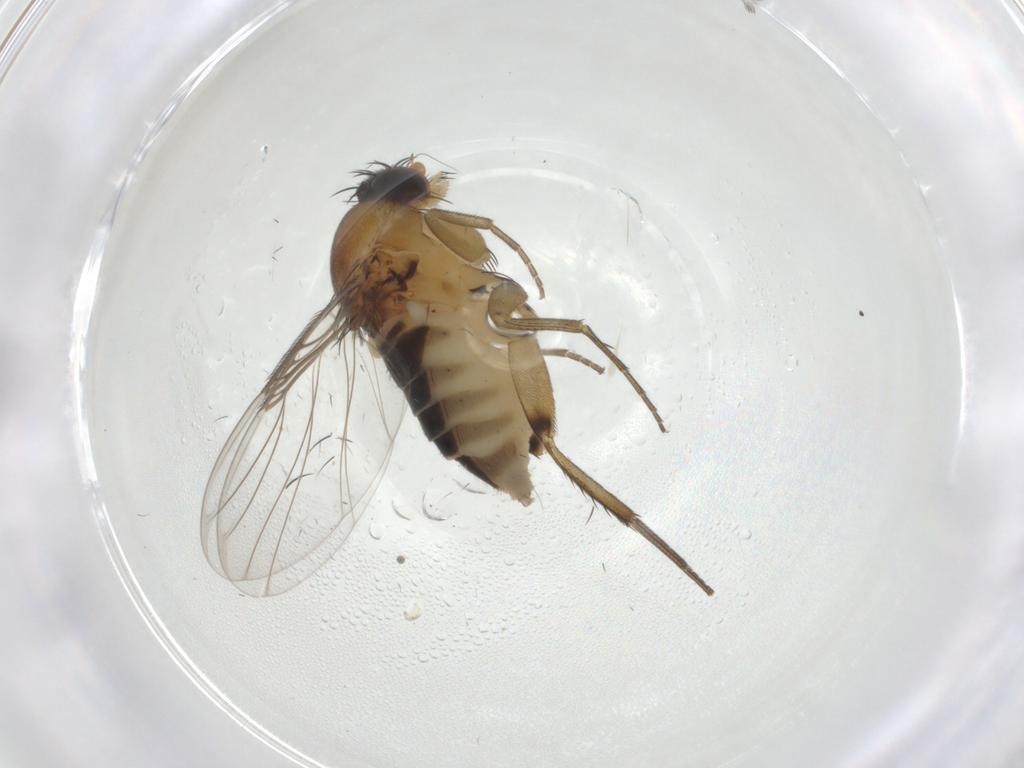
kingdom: Animalia
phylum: Arthropoda
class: Insecta
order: Diptera
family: Phoridae
